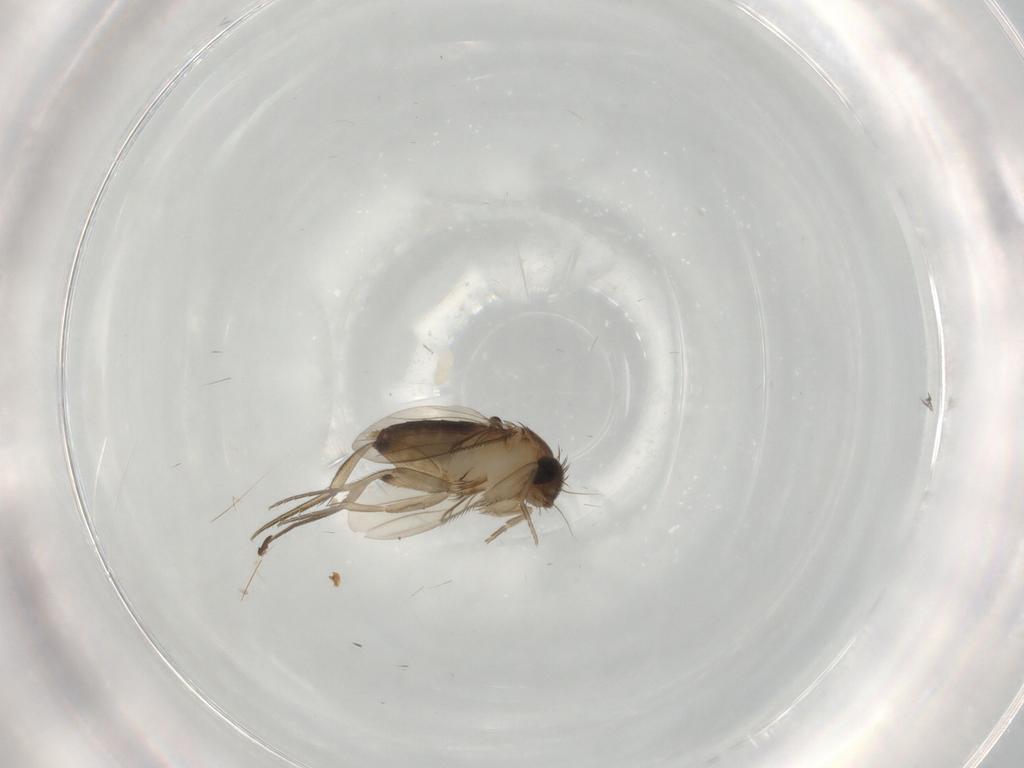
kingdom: Animalia
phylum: Arthropoda
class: Insecta
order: Diptera
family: Phoridae
